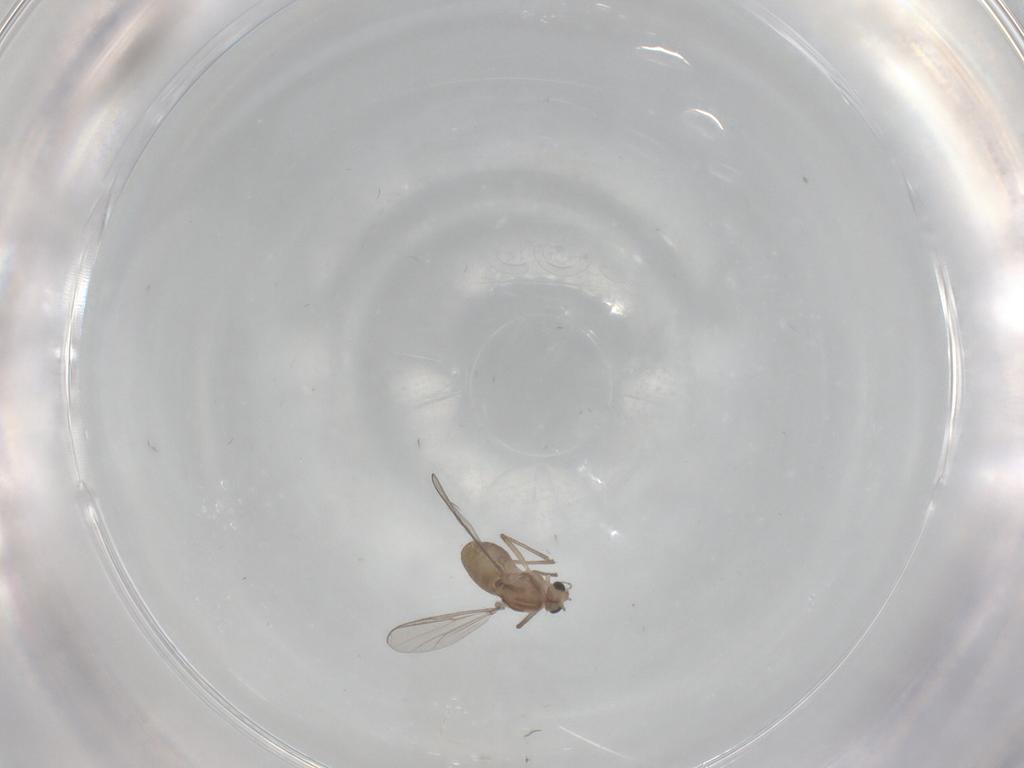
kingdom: Animalia
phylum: Arthropoda
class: Insecta
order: Diptera
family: Chironomidae
